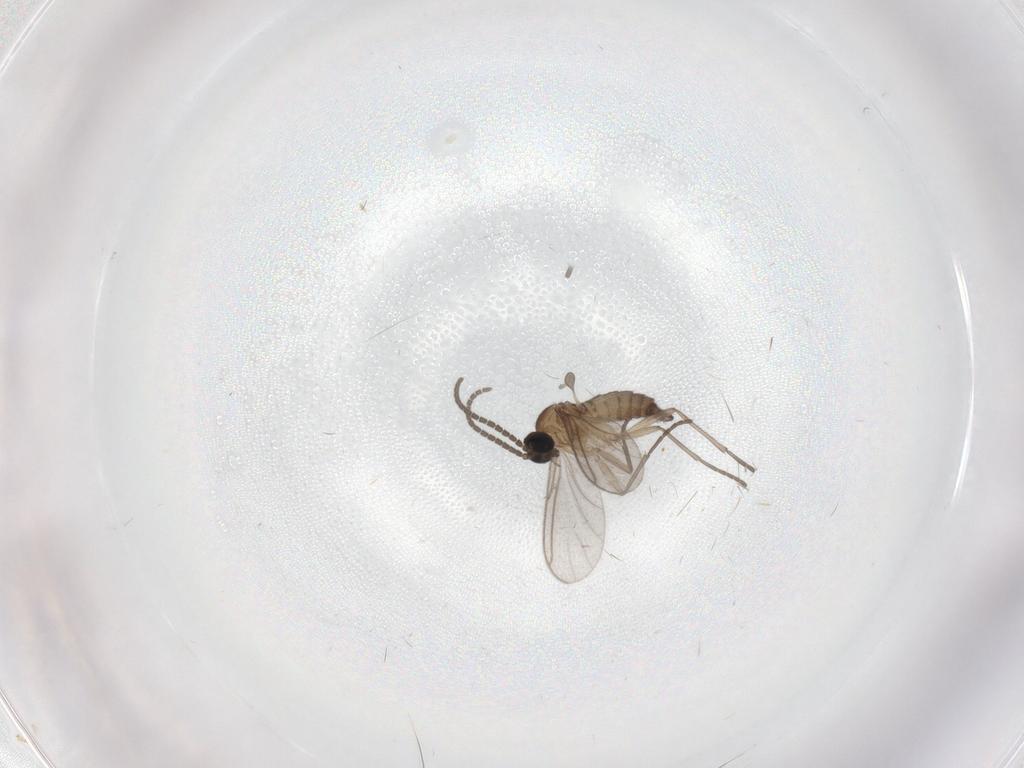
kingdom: Animalia
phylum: Arthropoda
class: Insecta
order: Diptera
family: Sciaridae
